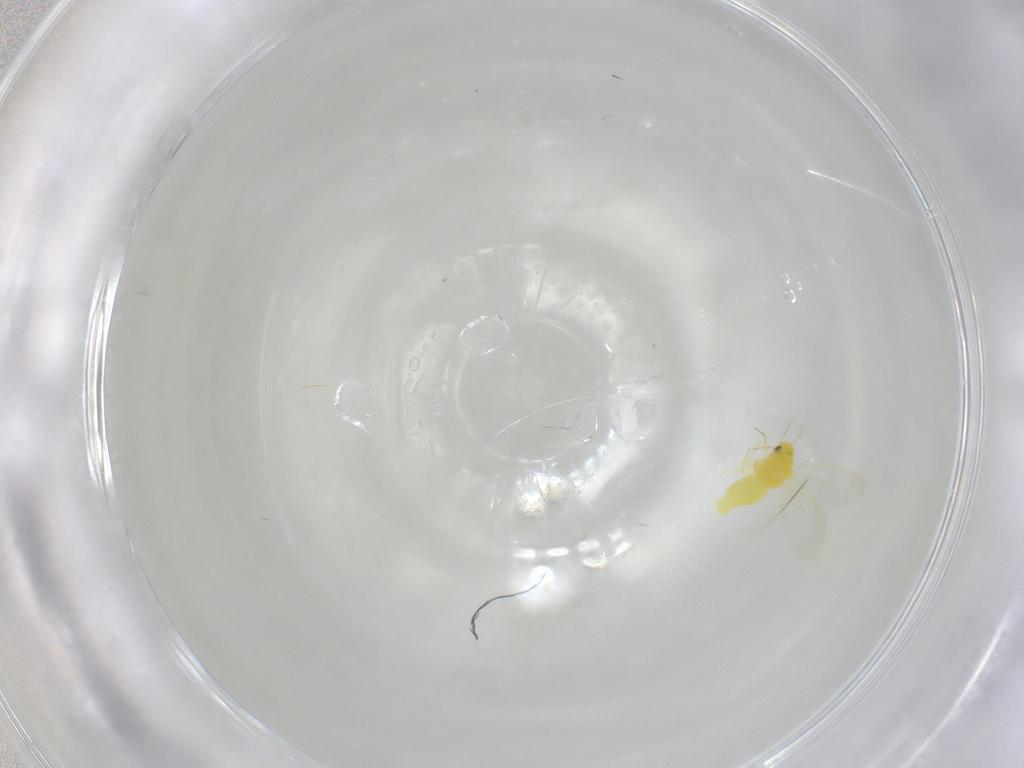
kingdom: Animalia
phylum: Arthropoda
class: Insecta
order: Hemiptera
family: Aleyrodidae
